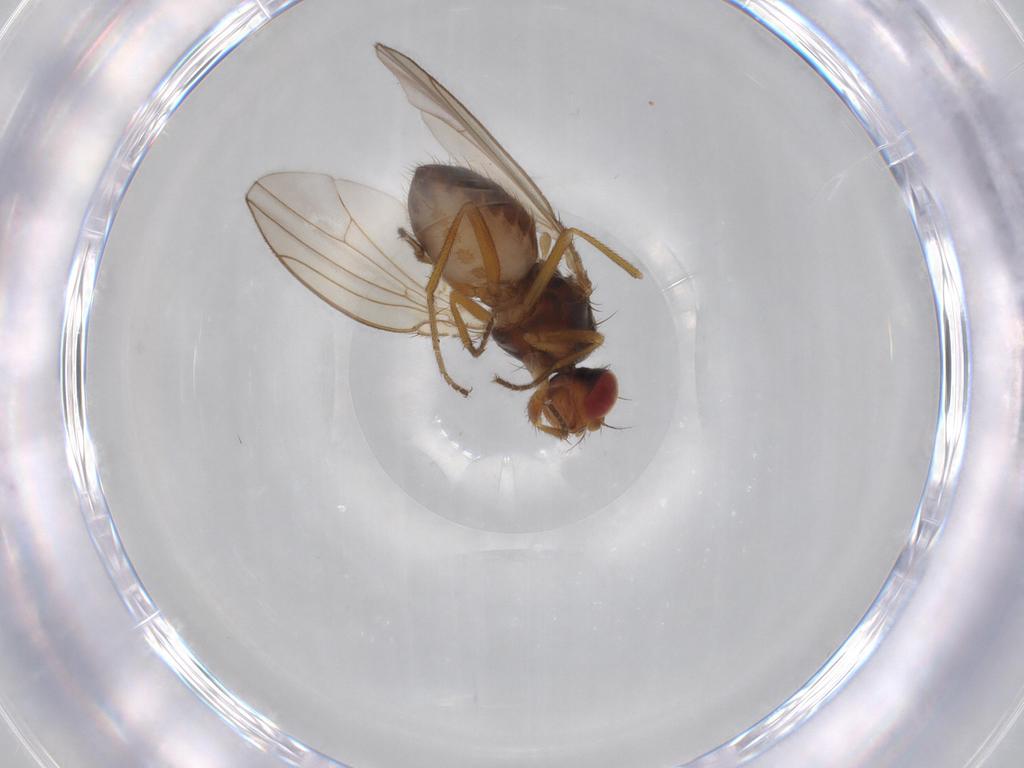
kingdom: Animalia
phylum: Arthropoda
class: Insecta
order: Diptera
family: Drosophilidae
